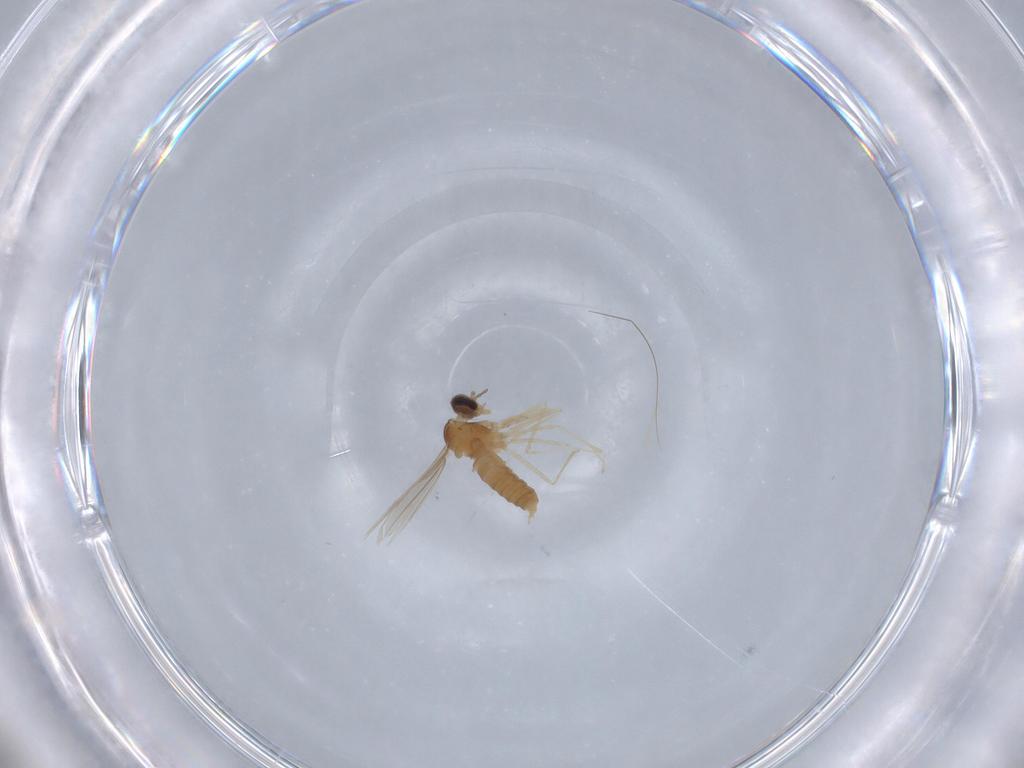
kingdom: Animalia
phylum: Arthropoda
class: Insecta
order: Diptera
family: Cecidomyiidae
